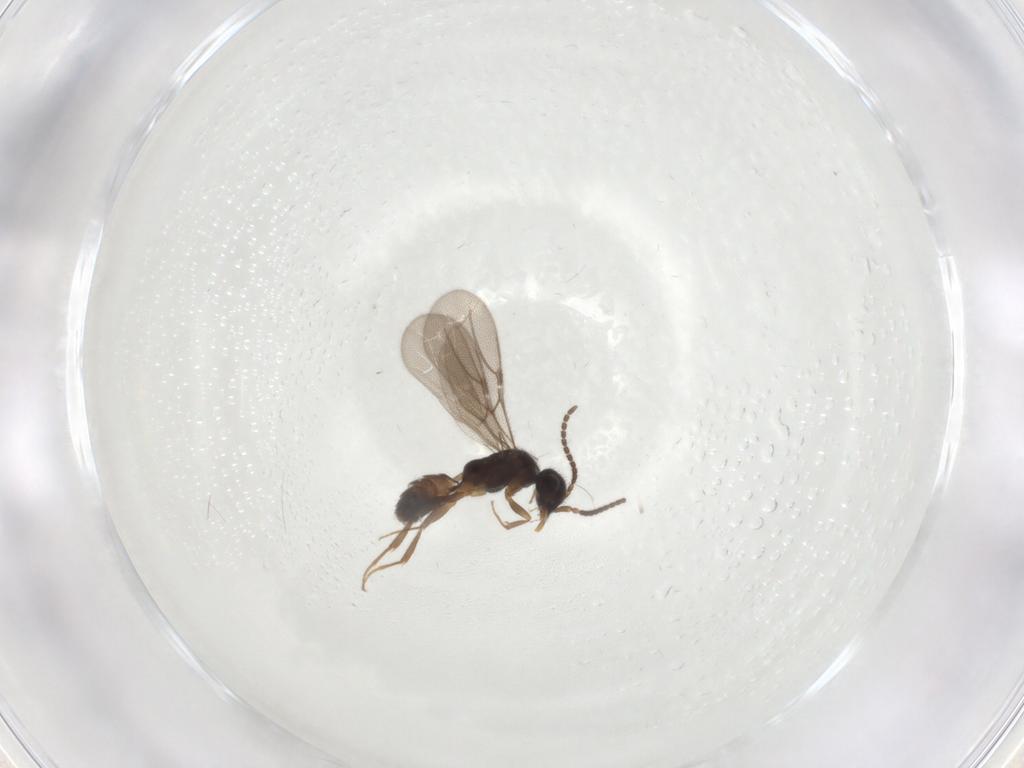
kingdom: Animalia
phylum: Arthropoda
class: Insecta
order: Hymenoptera
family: Bethylidae
